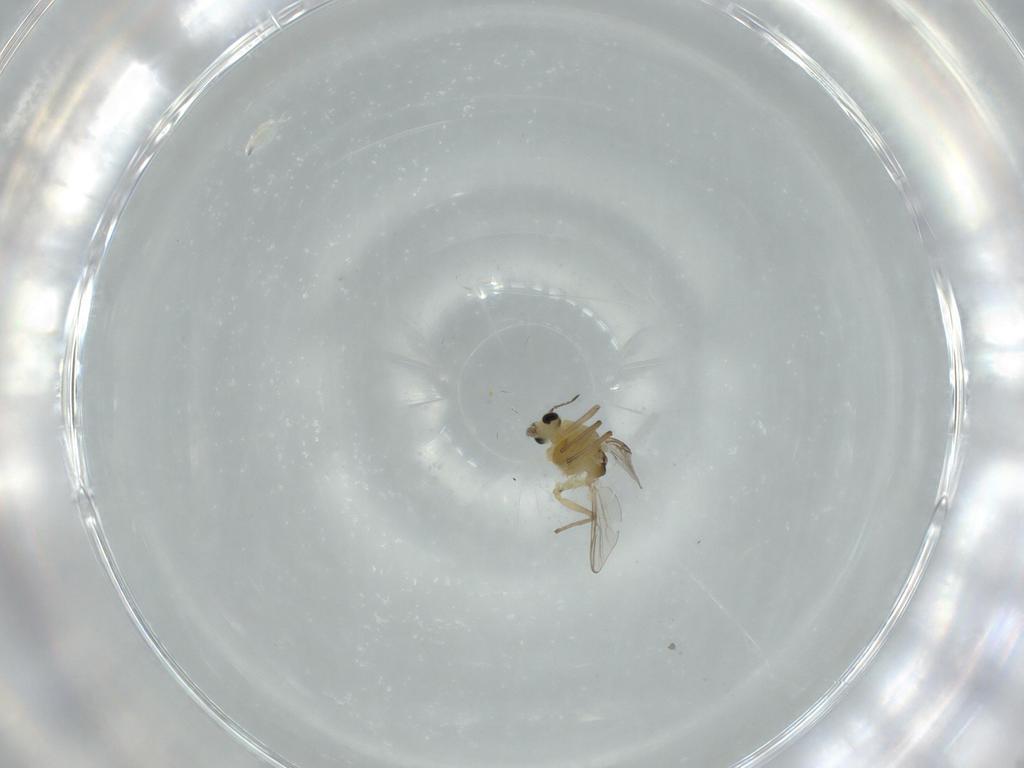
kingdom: Animalia
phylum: Arthropoda
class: Insecta
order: Diptera
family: Chironomidae
